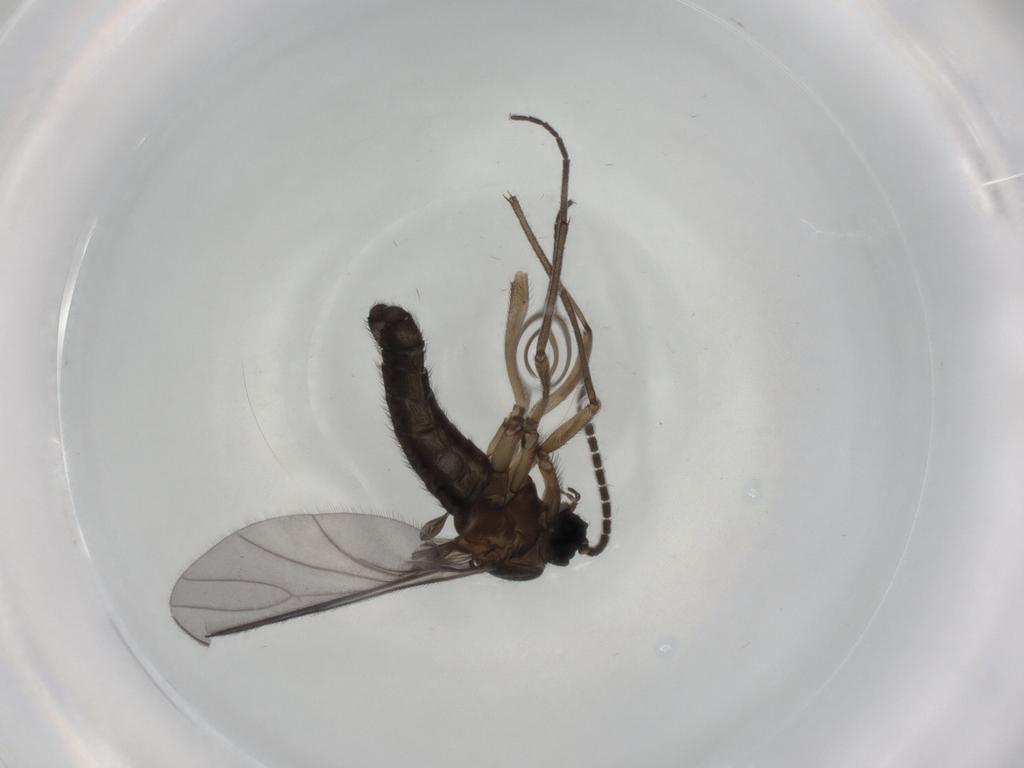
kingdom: Animalia
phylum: Arthropoda
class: Insecta
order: Diptera
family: Sciaridae
